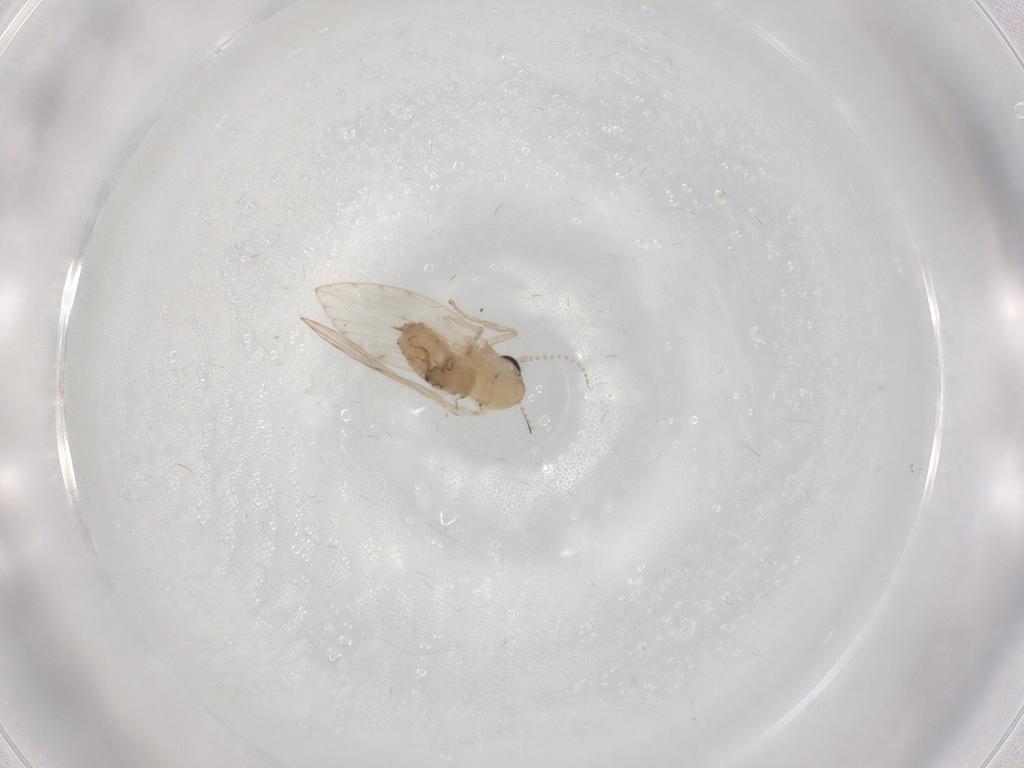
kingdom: Animalia
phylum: Arthropoda
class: Insecta
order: Diptera
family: Psychodidae
